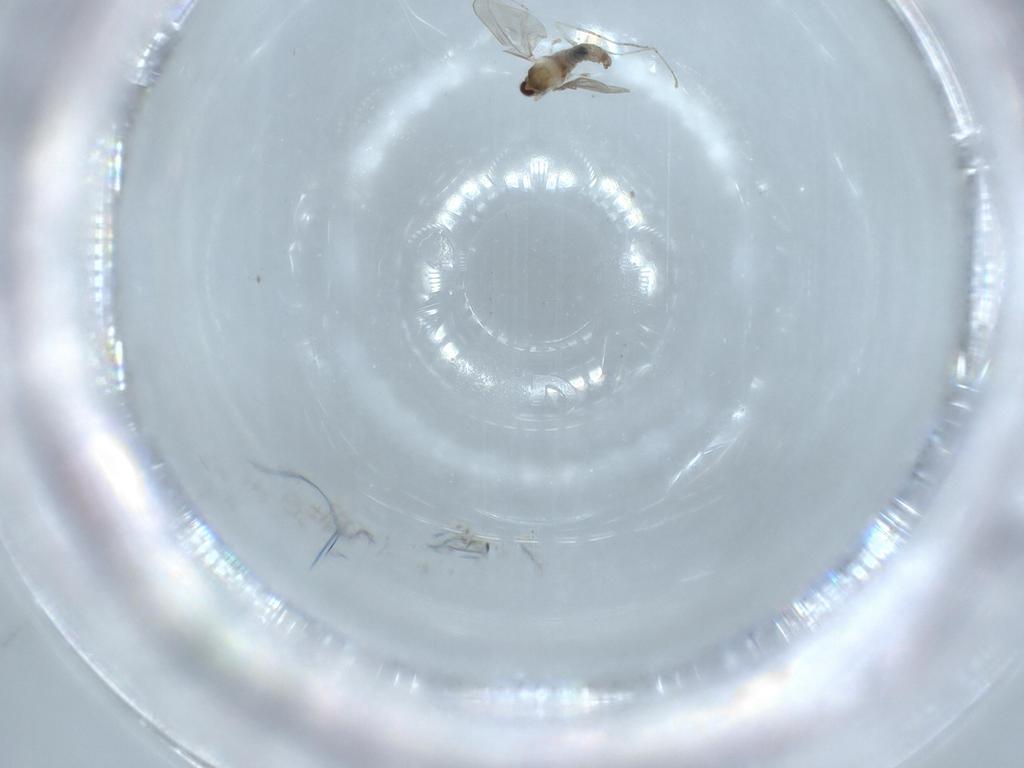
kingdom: Animalia
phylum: Arthropoda
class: Insecta
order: Diptera
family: Cecidomyiidae
